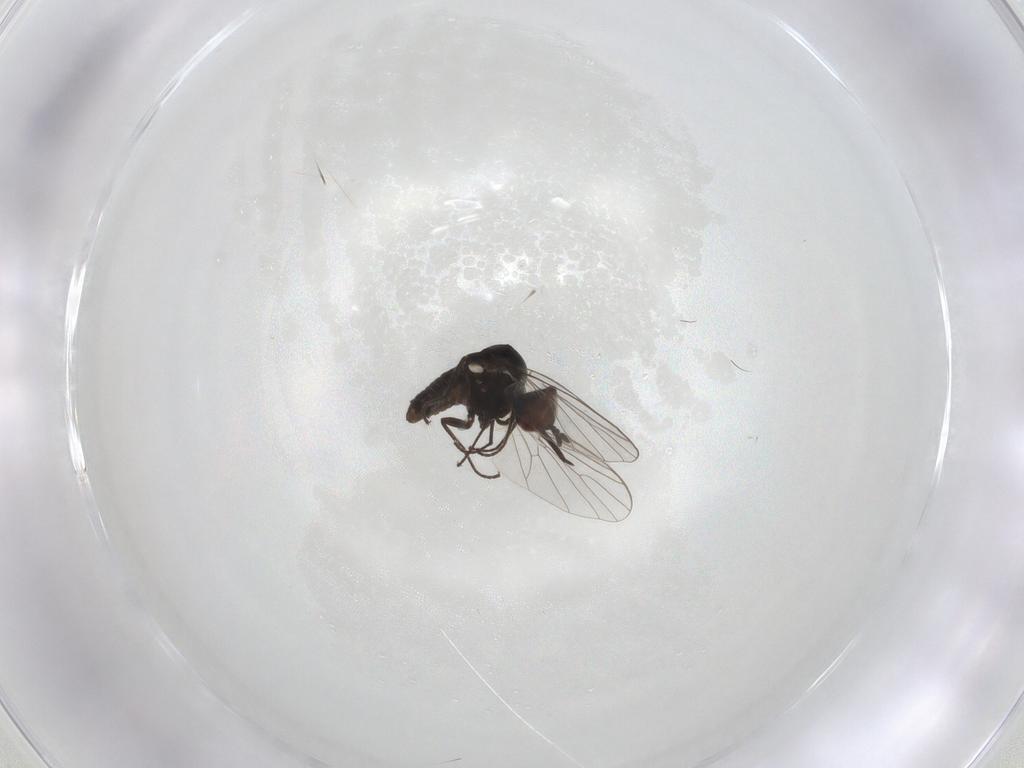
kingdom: Animalia
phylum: Arthropoda
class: Insecta
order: Diptera
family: Bombyliidae
